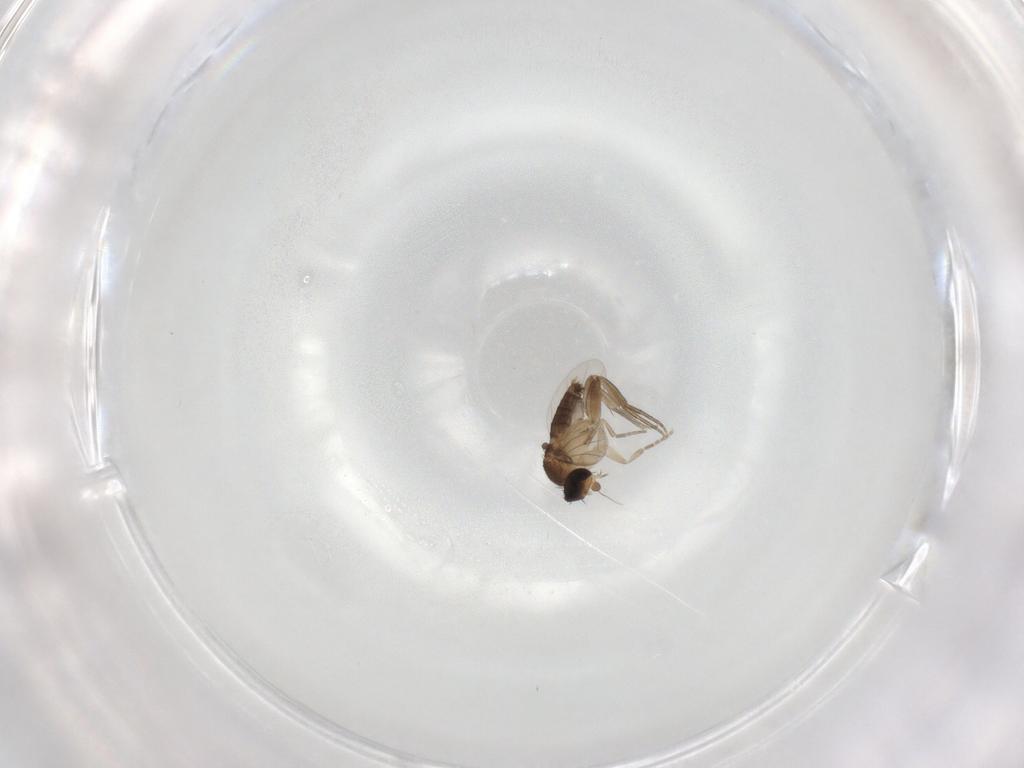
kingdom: Animalia
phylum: Arthropoda
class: Insecta
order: Diptera
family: Phoridae
